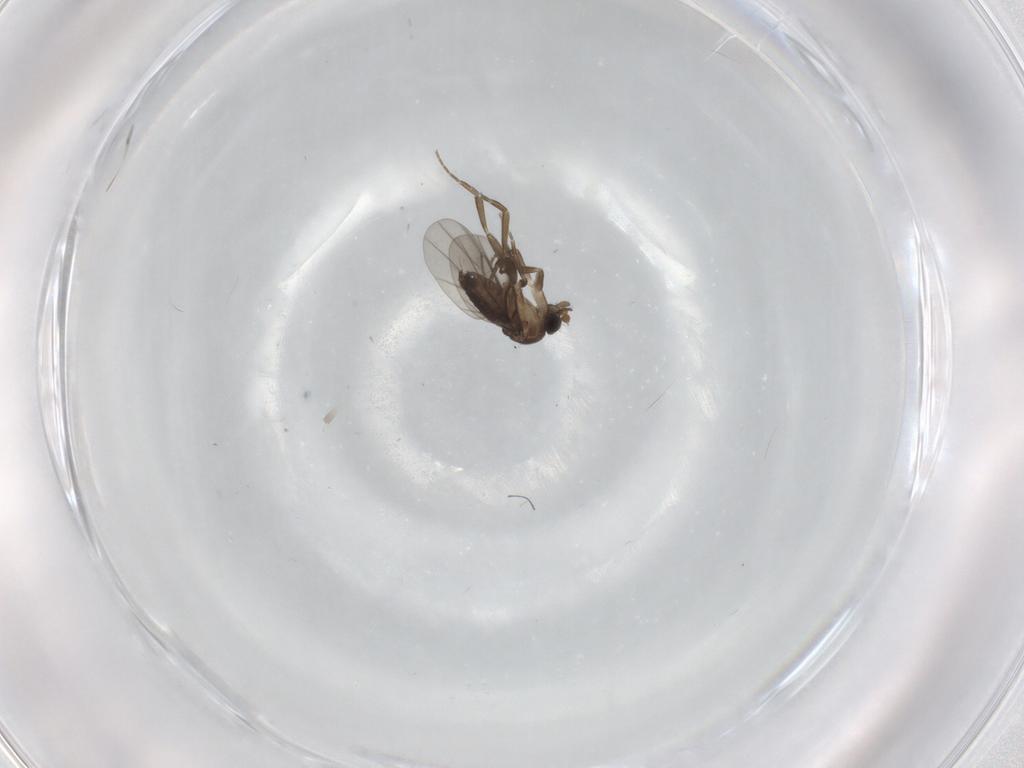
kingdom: Animalia
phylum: Arthropoda
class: Insecta
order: Diptera
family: Phoridae
